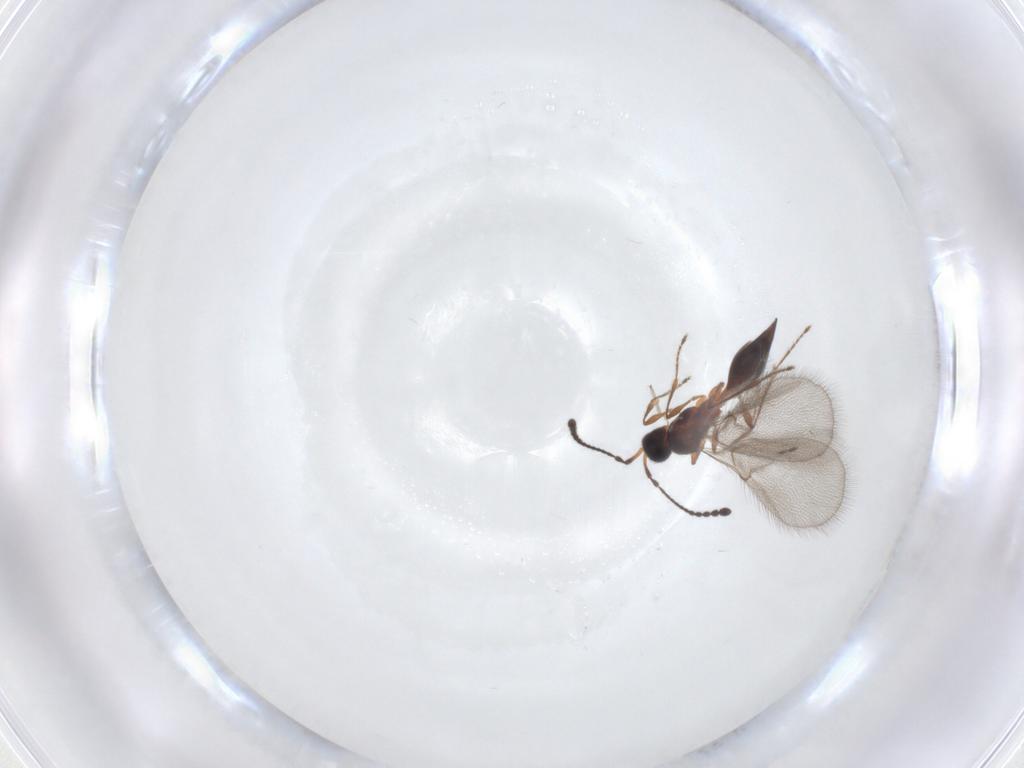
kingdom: Animalia
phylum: Arthropoda
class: Insecta
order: Hymenoptera
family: Diapriidae
